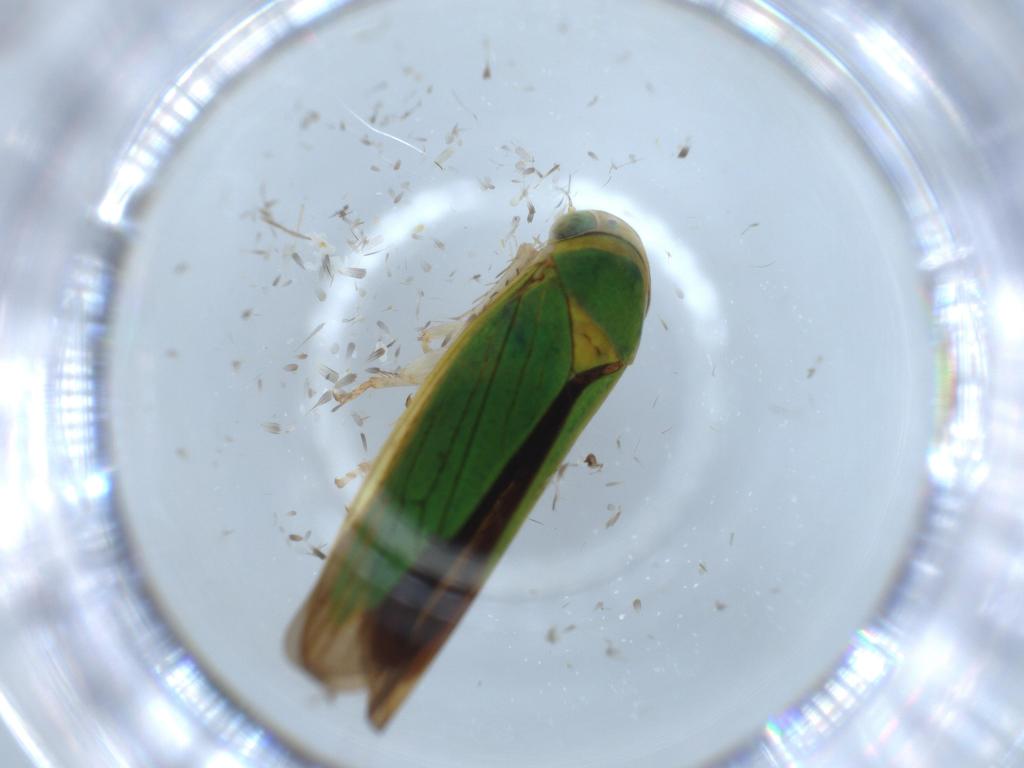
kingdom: Animalia
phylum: Arthropoda
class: Insecta
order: Hemiptera
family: Cicadellidae
